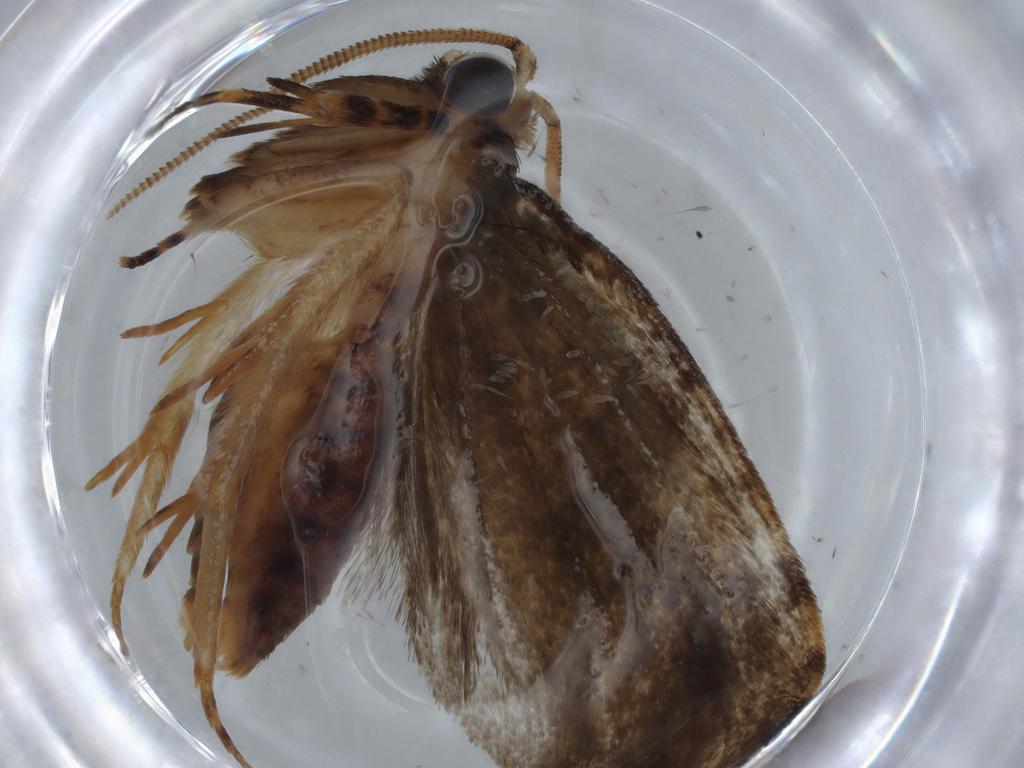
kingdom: Animalia
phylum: Arthropoda
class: Insecta
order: Lepidoptera
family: Tineidae
